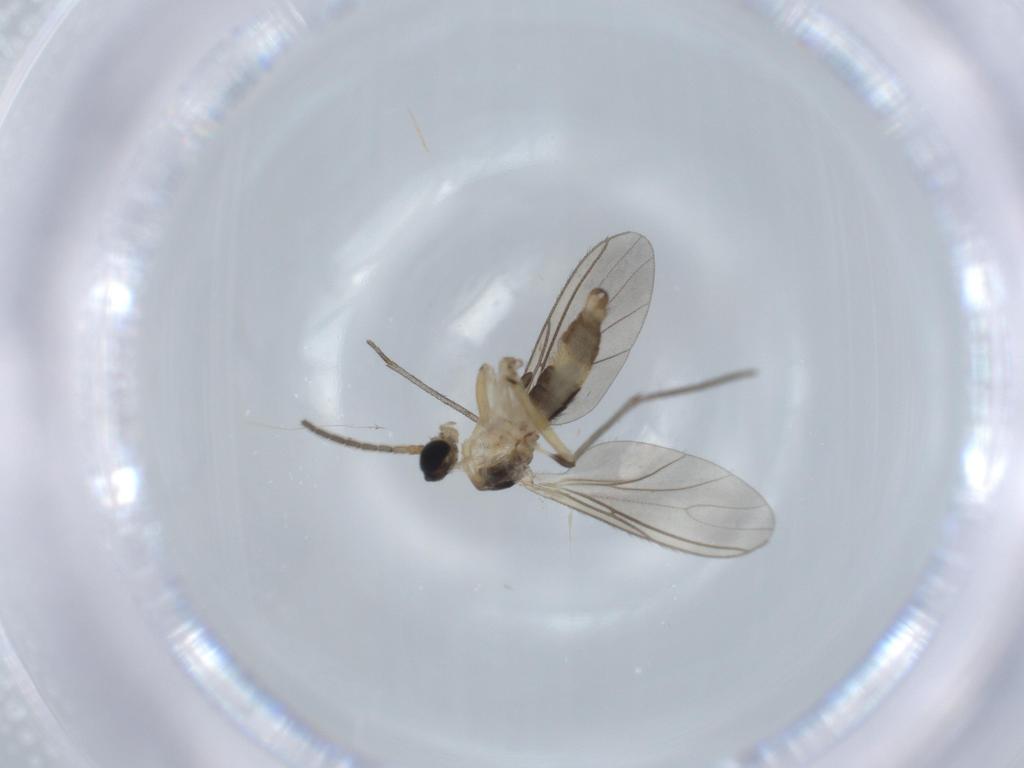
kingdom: Animalia
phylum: Arthropoda
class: Insecta
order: Diptera
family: Sciaridae
